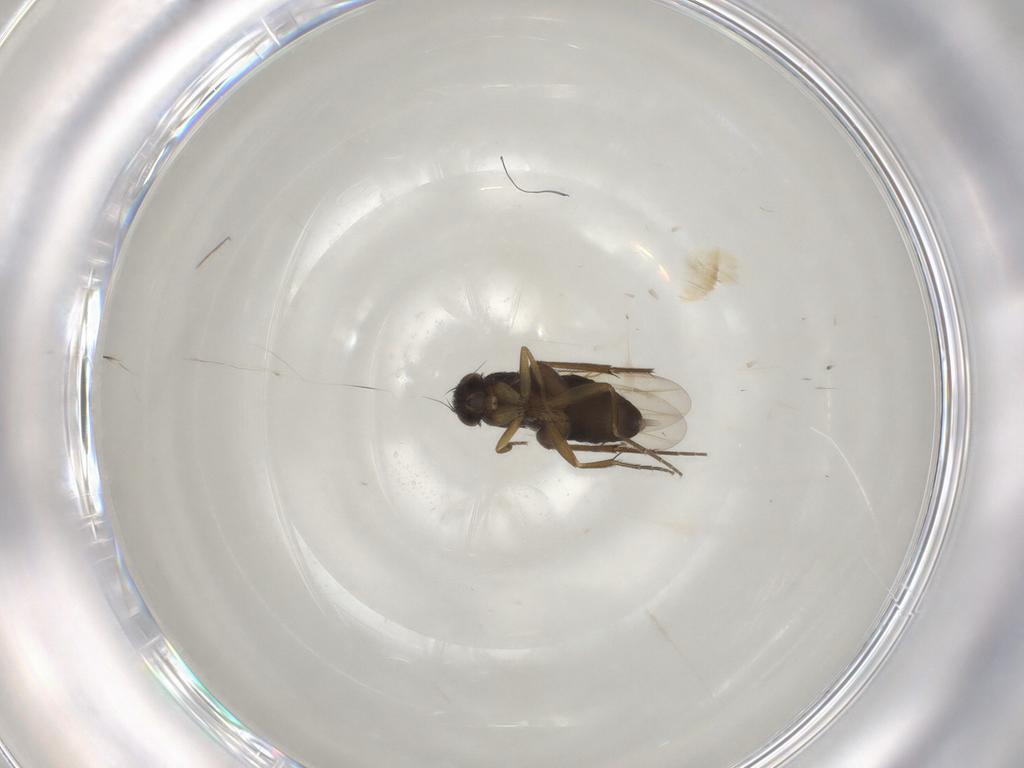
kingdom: Animalia
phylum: Arthropoda
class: Insecta
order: Diptera
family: Phoridae
